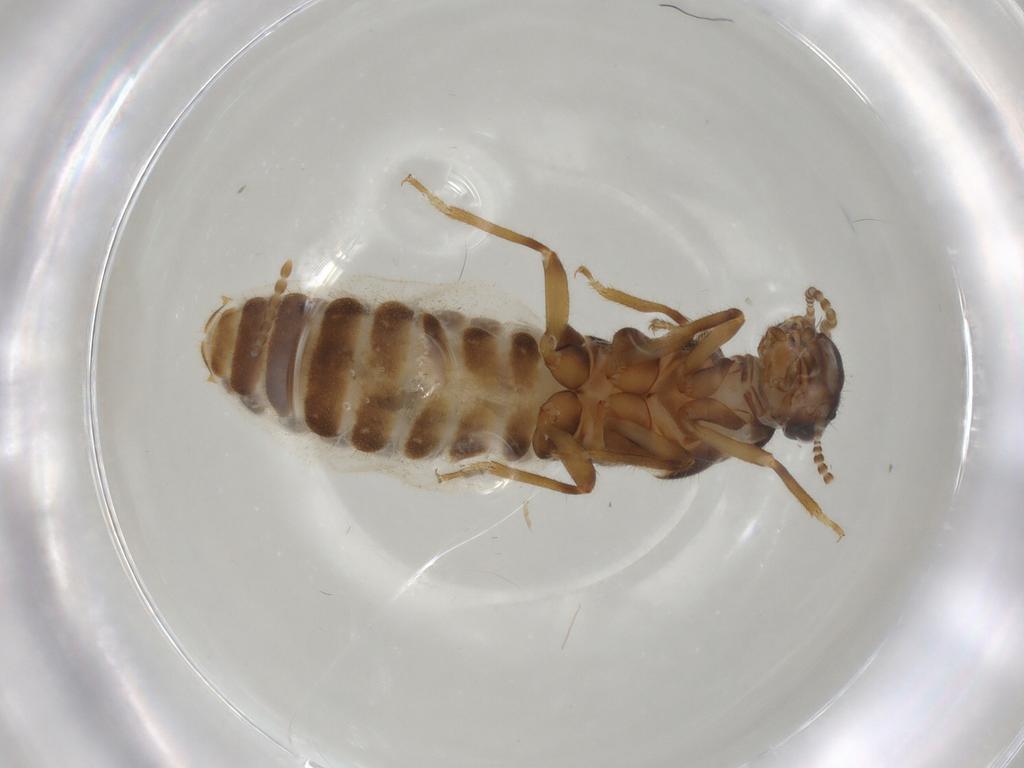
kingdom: Animalia
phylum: Arthropoda
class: Insecta
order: Blattodea
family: Termitidae
